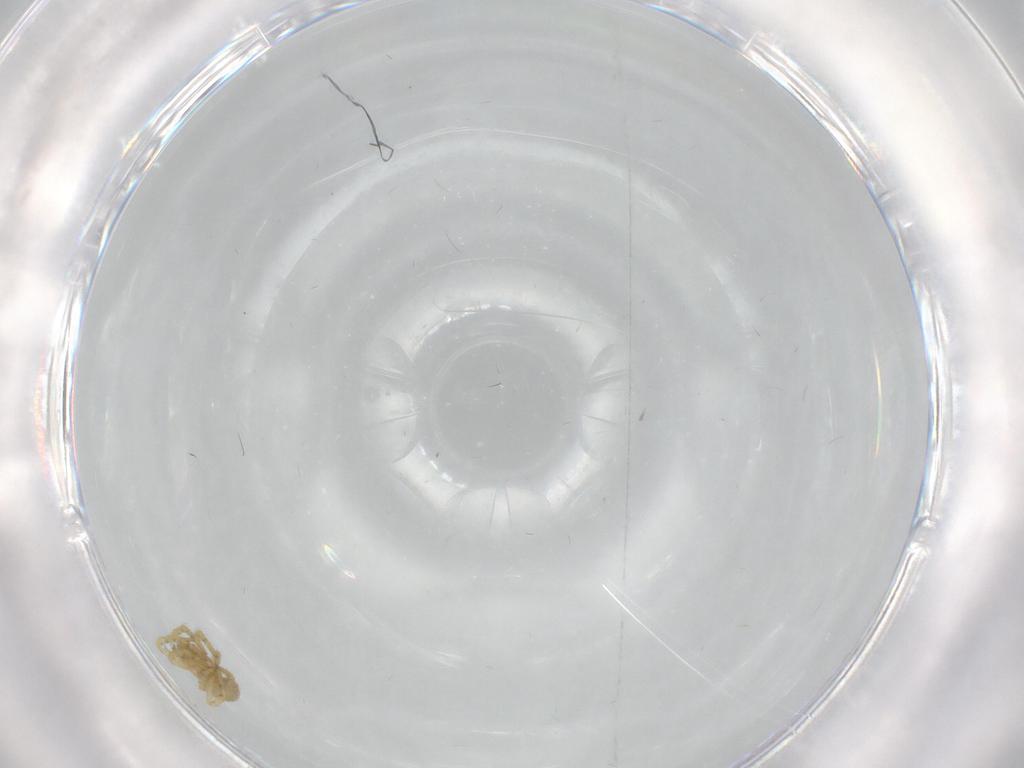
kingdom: Animalia
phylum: Arthropoda
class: Arachnida
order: Araneae
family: Theridiidae
